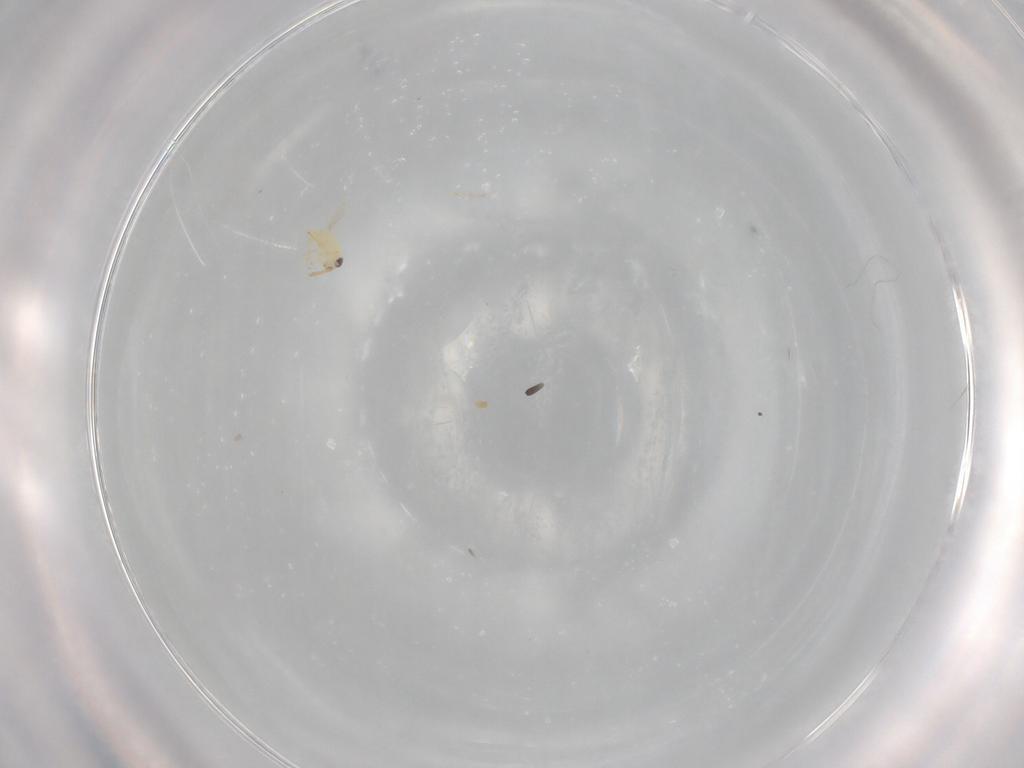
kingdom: Animalia
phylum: Arthropoda
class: Insecta
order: Hymenoptera
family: Aphelinidae
